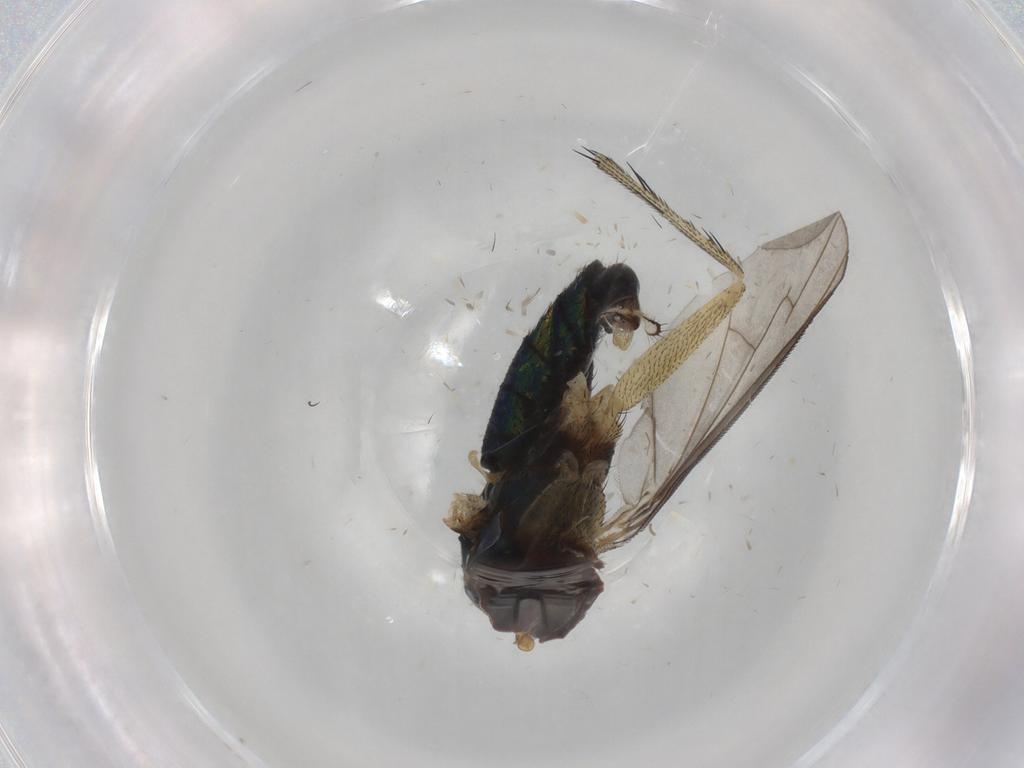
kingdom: Animalia
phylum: Arthropoda
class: Insecta
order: Diptera
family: Dolichopodidae
